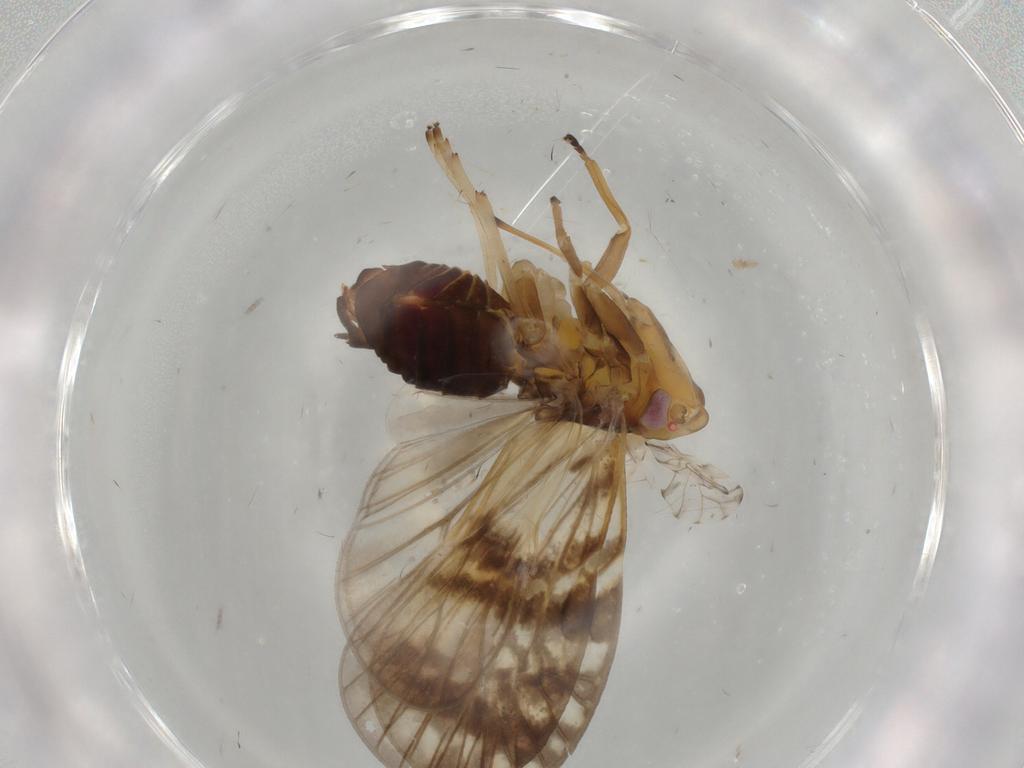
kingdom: Animalia
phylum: Arthropoda
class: Insecta
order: Hemiptera
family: Cixiidae
